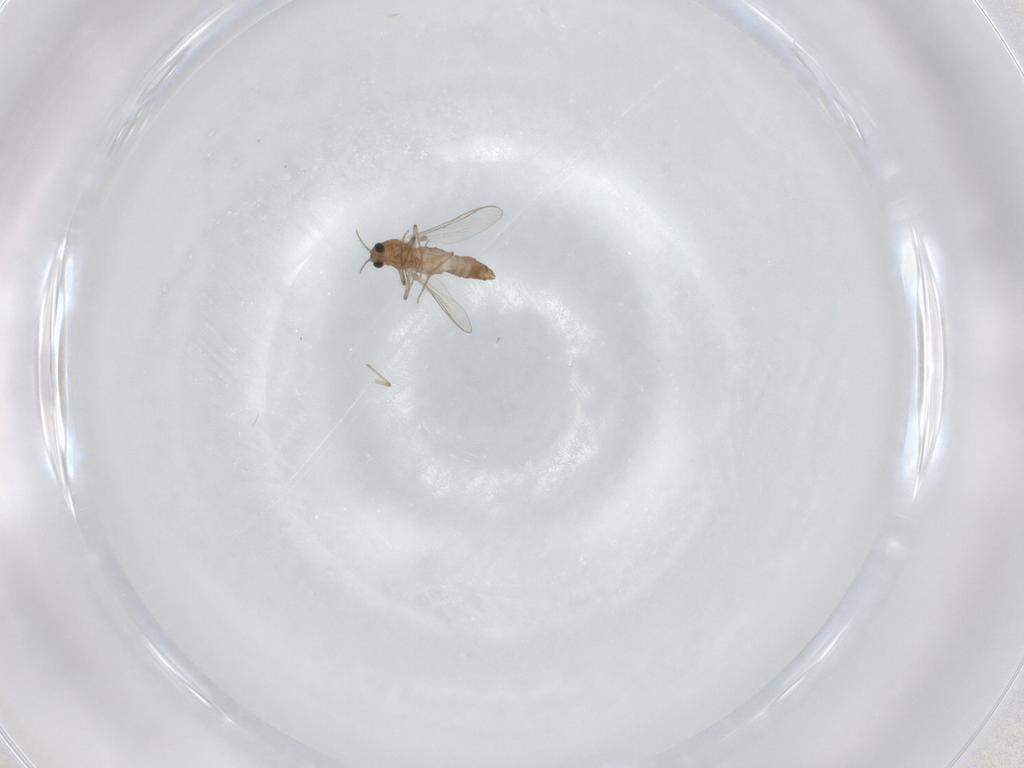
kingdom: Animalia
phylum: Arthropoda
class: Insecta
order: Diptera
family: Chironomidae
